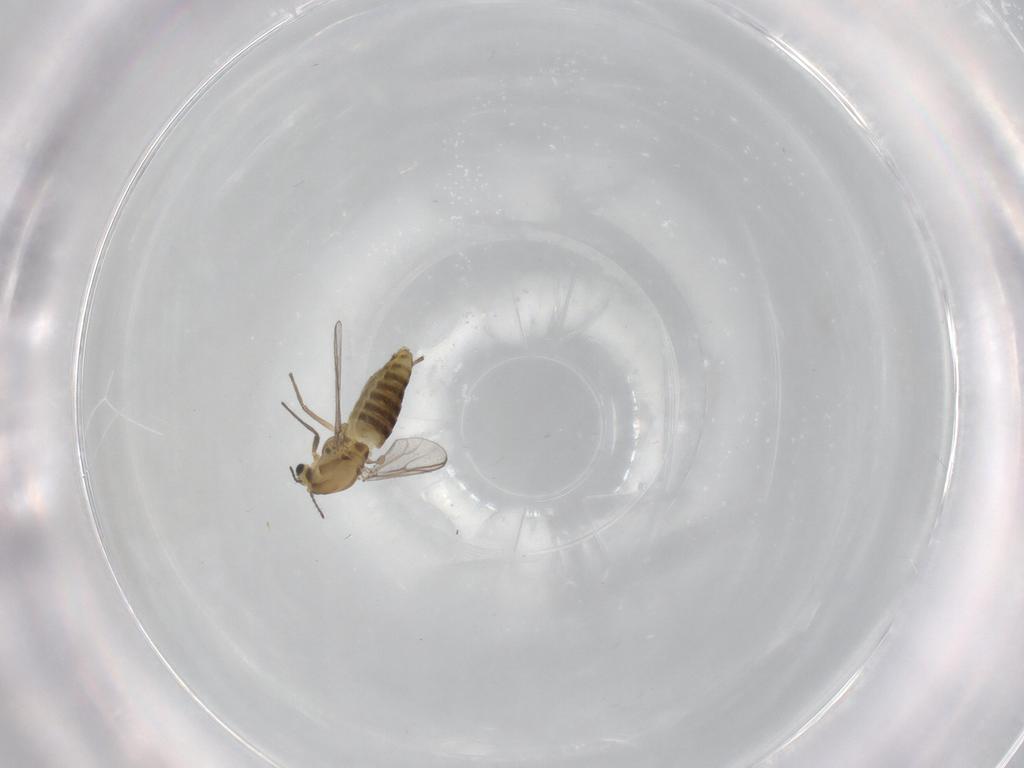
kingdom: Animalia
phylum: Arthropoda
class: Insecta
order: Diptera
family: Chironomidae
